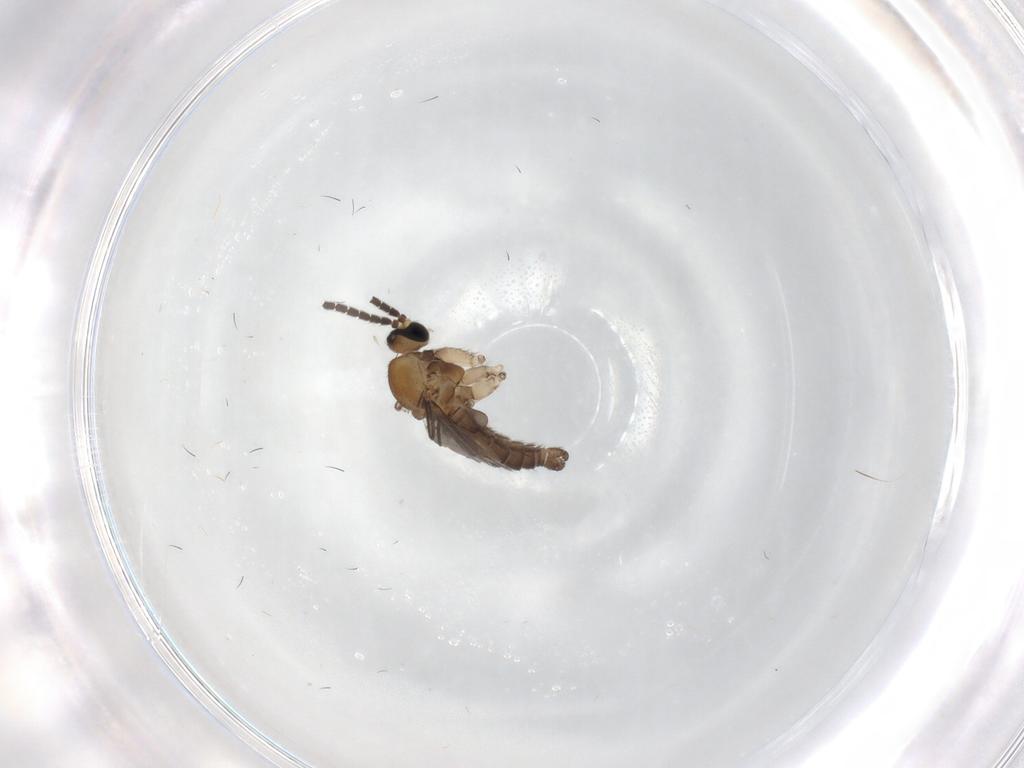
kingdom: Animalia
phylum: Arthropoda
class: Insecta
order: Diptera
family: Sciaridae
